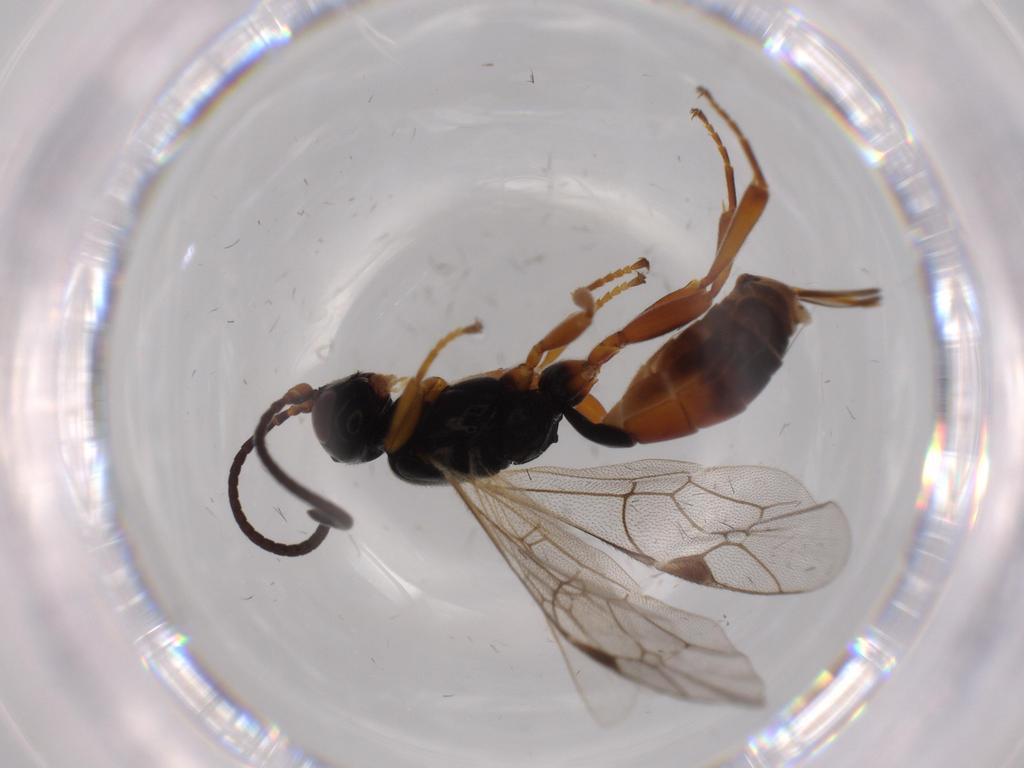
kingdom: Animalia
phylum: Arthropoda
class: Insecta
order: Hymenoptera
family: Ichneumonidae
